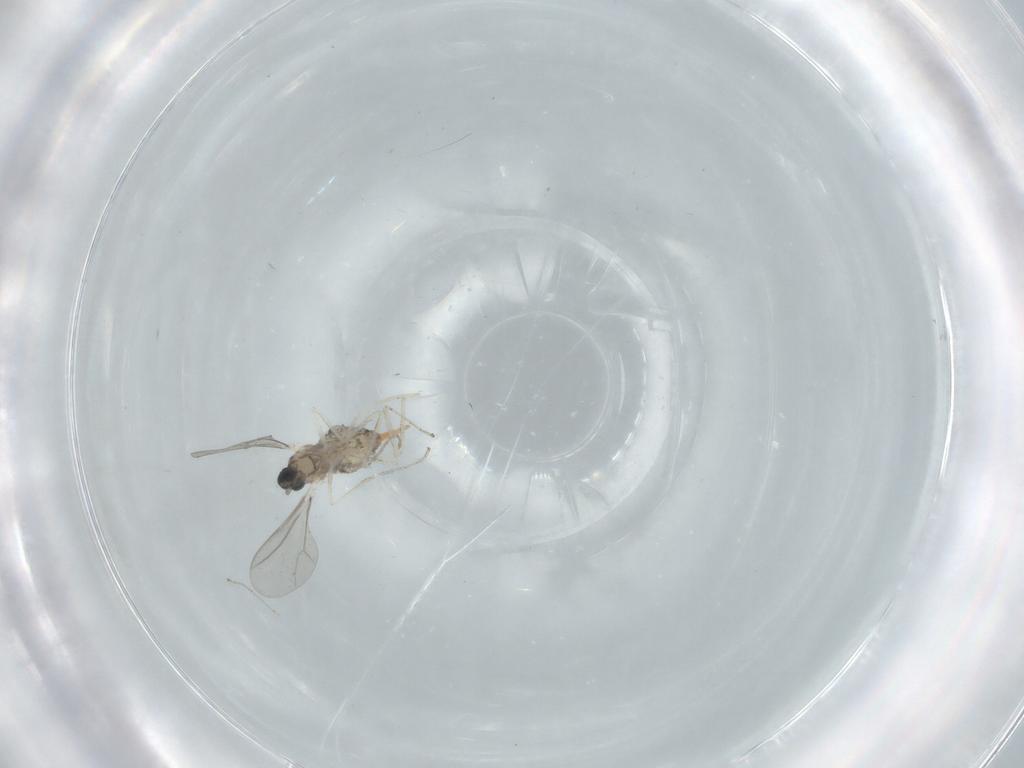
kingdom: Animalia
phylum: Arthropoda
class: Insecta
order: Diptera
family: Cecidomyiidae
